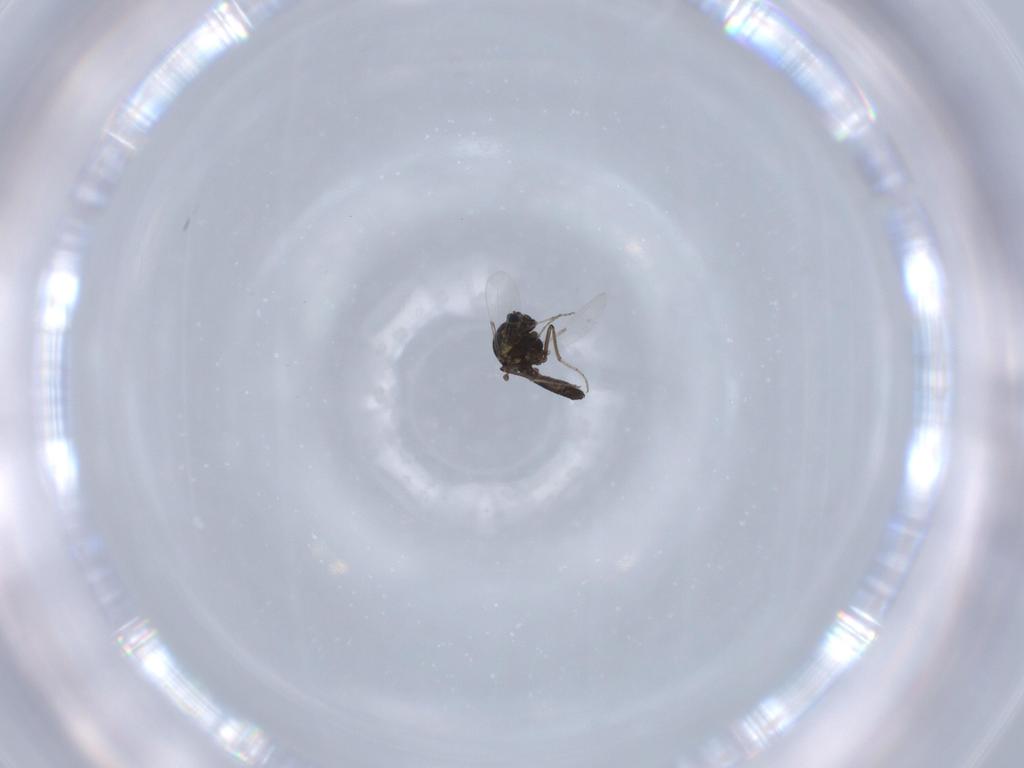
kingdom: Animalia
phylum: Arthropoda
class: Insecta
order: Diptera
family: Ceratopogonidae
